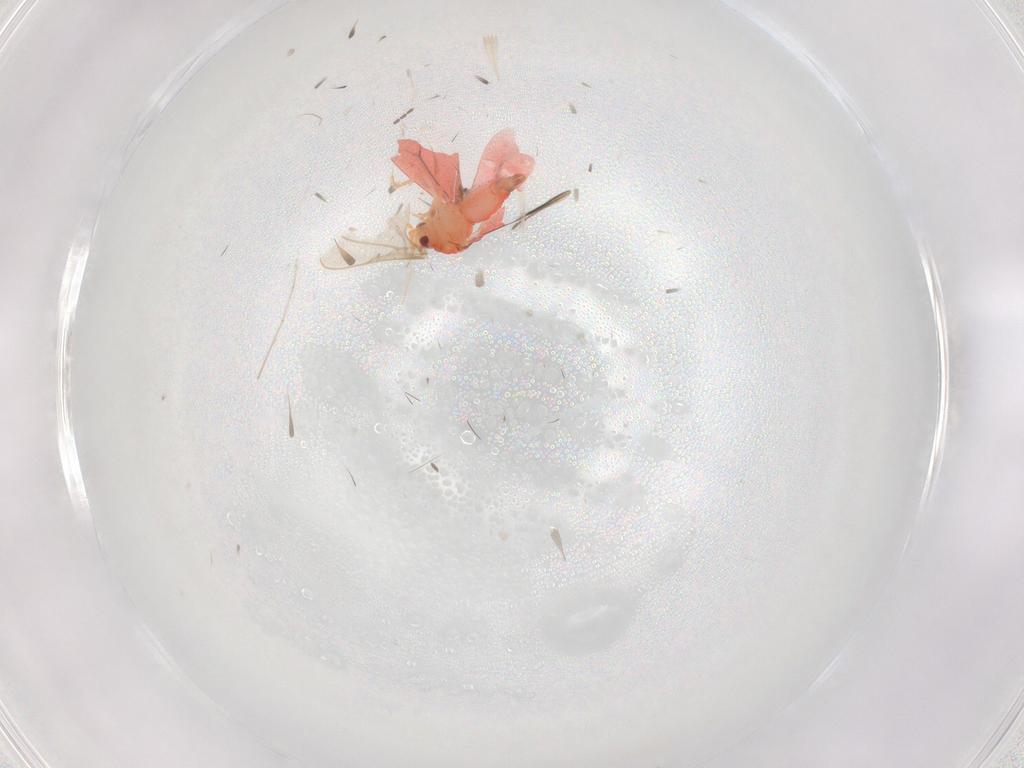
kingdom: Animalia
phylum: Arthropoda
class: Insecta
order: Hemiptera
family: Aleyrodidae
